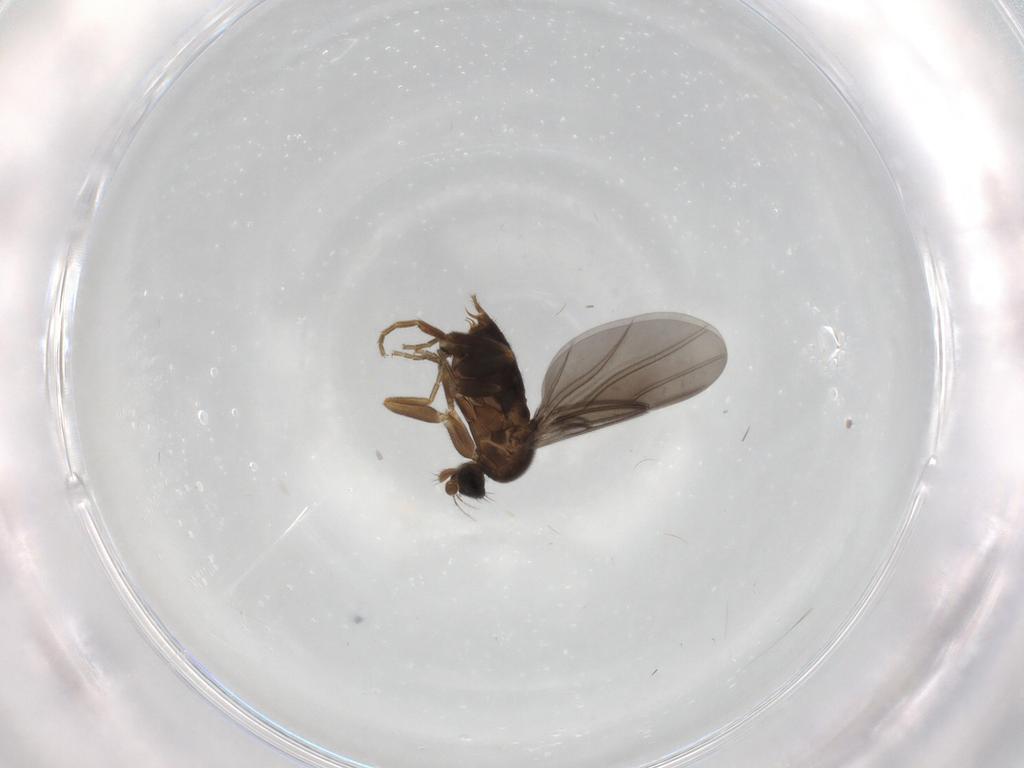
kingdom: Animalia
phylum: Arthropoda
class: Insecta
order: Diptera
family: Phoridae
